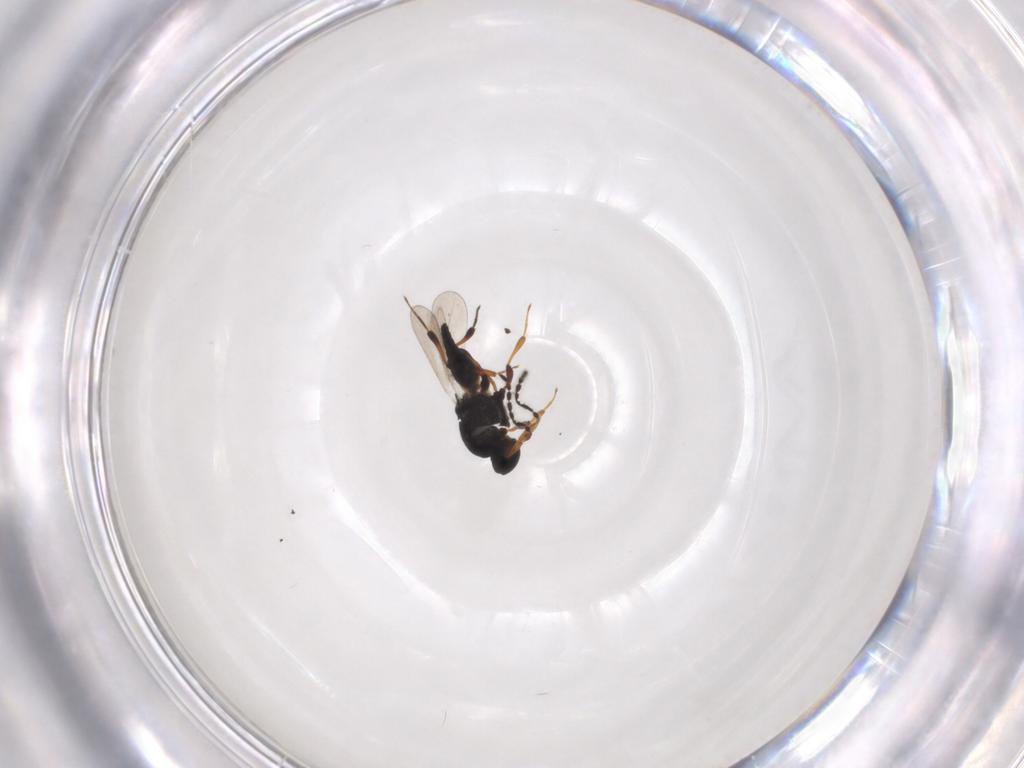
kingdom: Animalia
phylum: Arthropoda
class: Insecta
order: Hymenoptera
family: Platygastridae
